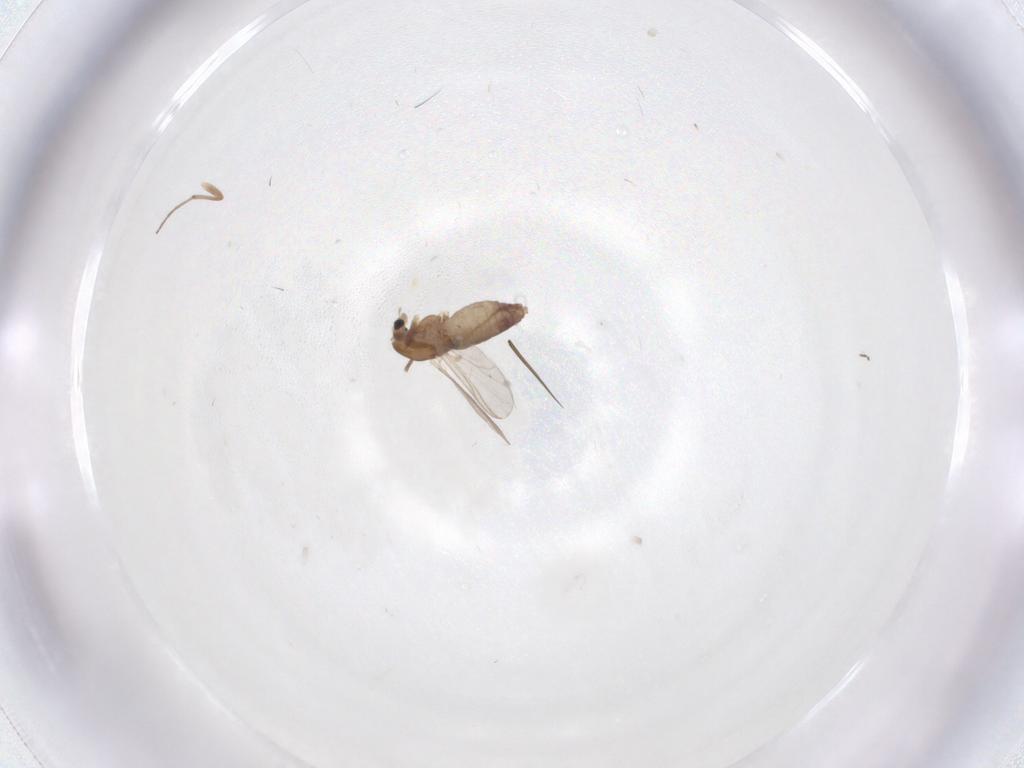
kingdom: Animalia
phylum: Arthropoda
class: Insecta
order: Diptera
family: Chironomidae
